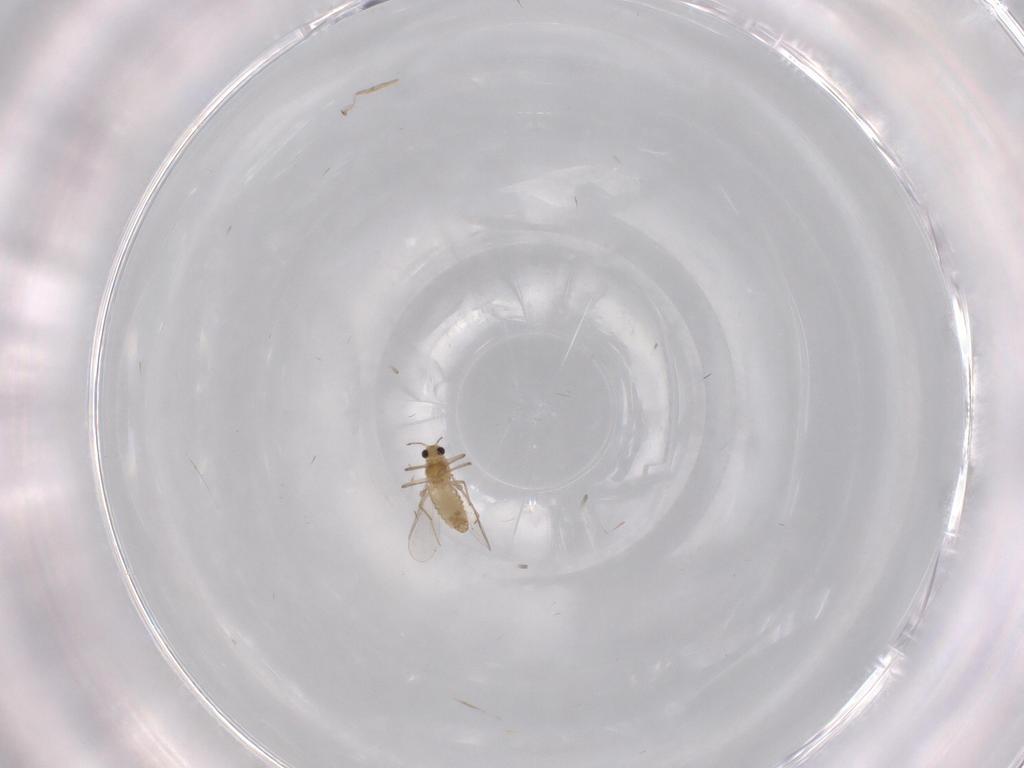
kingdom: Animalia
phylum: Arthropoda
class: Insecta
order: Diptera
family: Chironomidae
